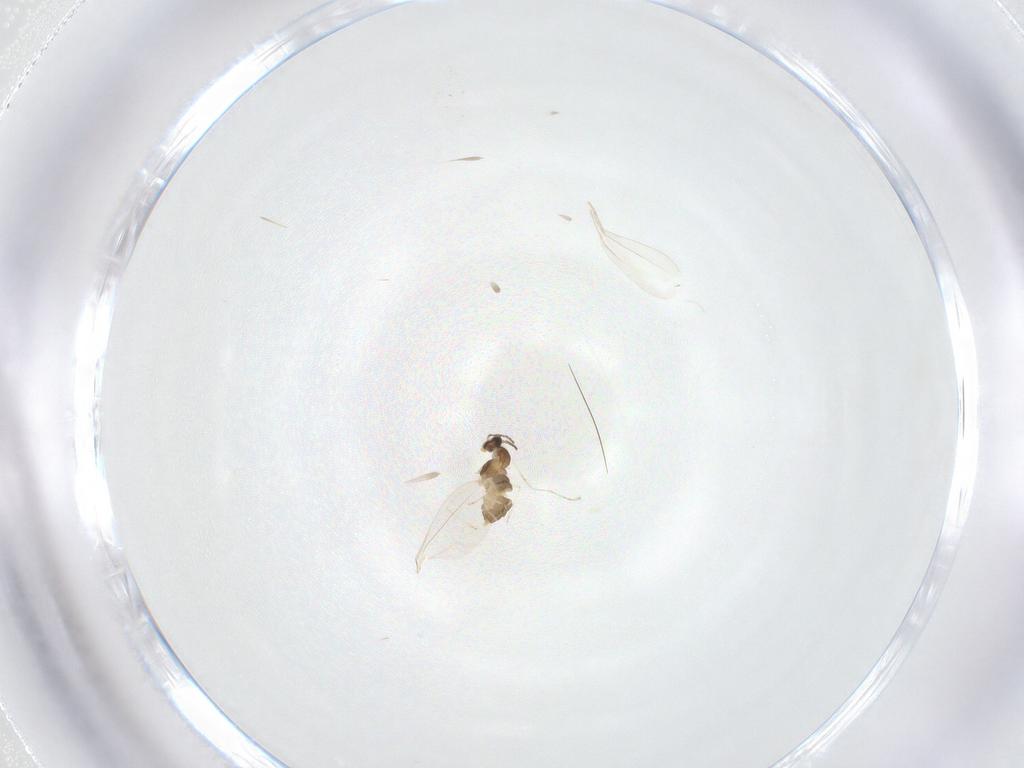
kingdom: Animalia
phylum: Arthropoda
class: Insecta
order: Diptera
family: Cecidomyiidae
